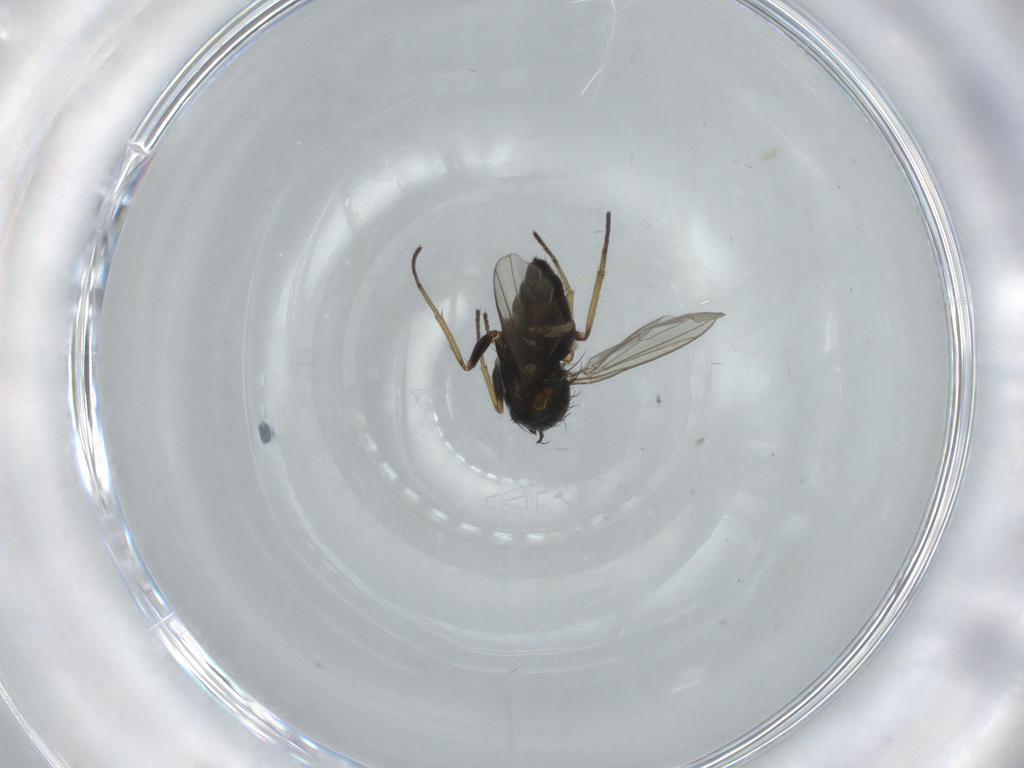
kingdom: Animalia
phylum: Arthropoda
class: Insecta
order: Diptera
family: Dolichopodidae
